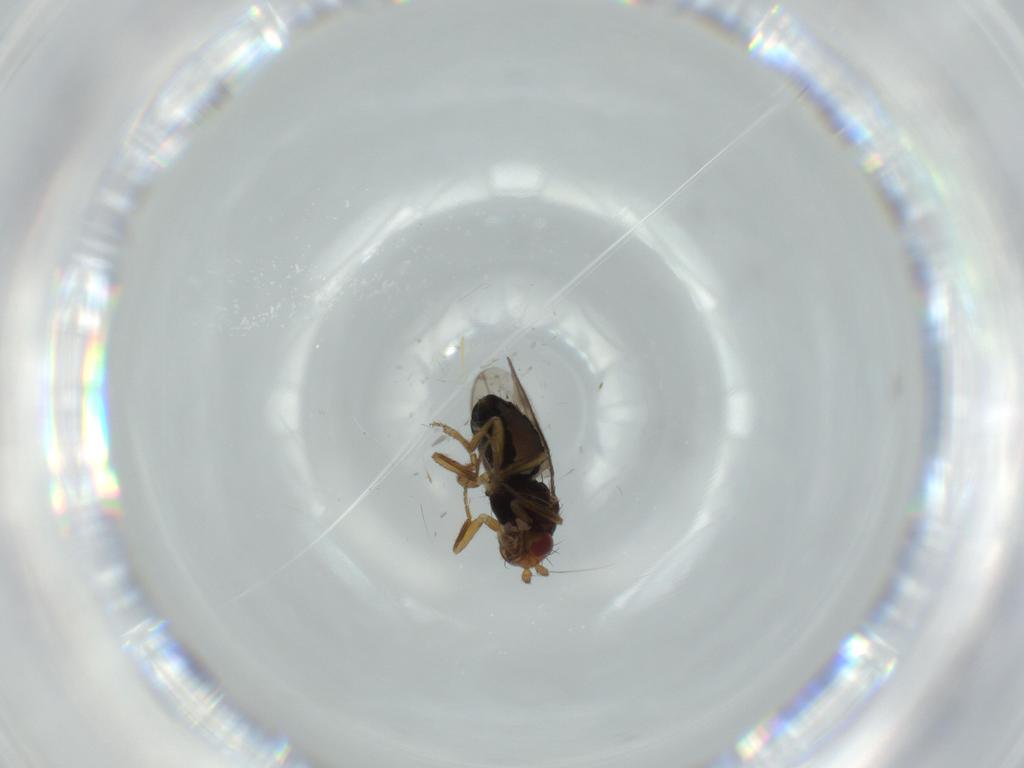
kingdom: Animalia
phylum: Arthropoda
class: Insecta
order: Diptera
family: Sphaeroceridae
